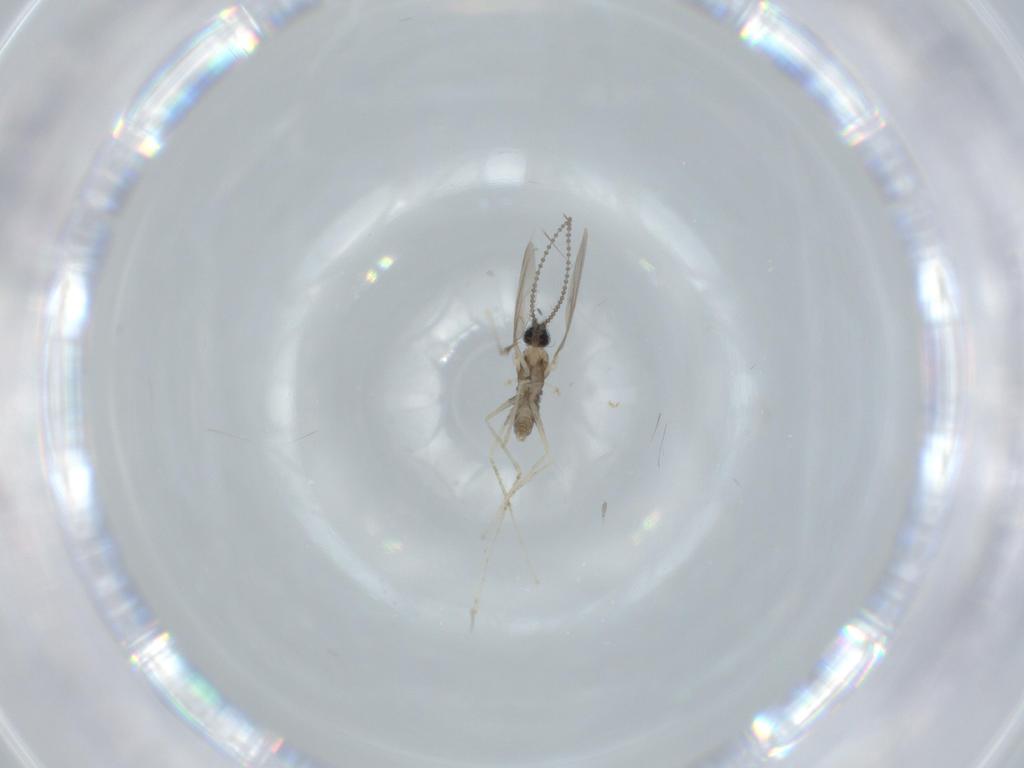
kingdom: Animalia
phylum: Arthropoda
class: Insecta
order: Diptera
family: Cecidomyiidae
